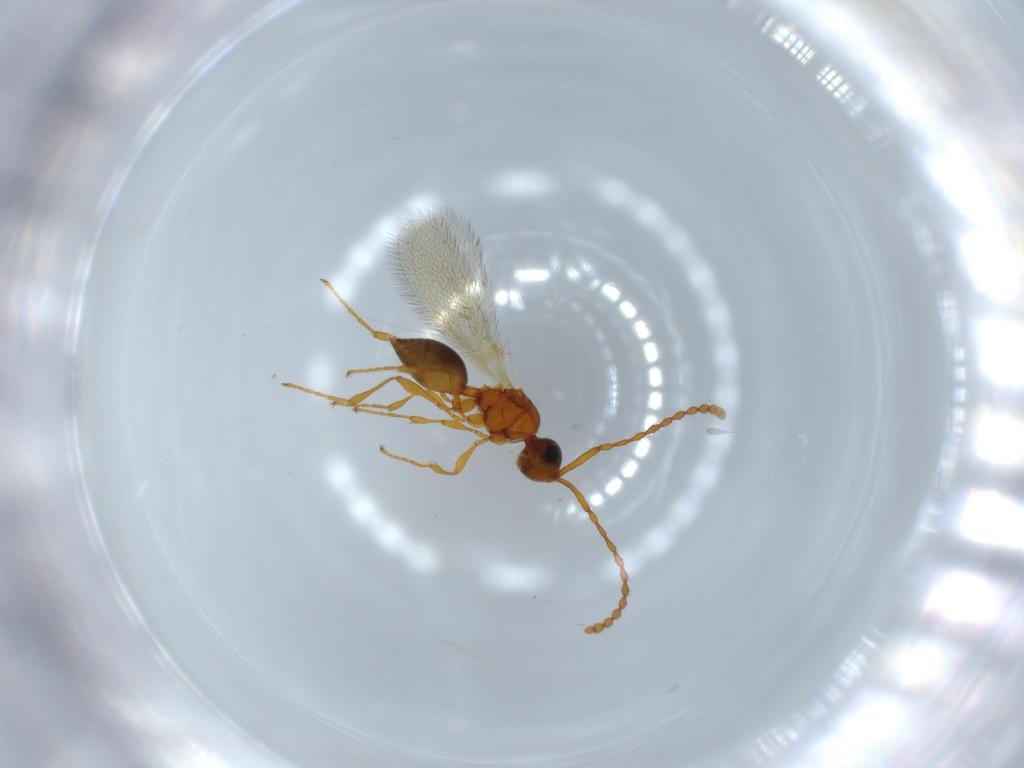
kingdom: Animalia
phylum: Arthropoda
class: Insecta
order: Hymenoptera
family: Diapriidae
